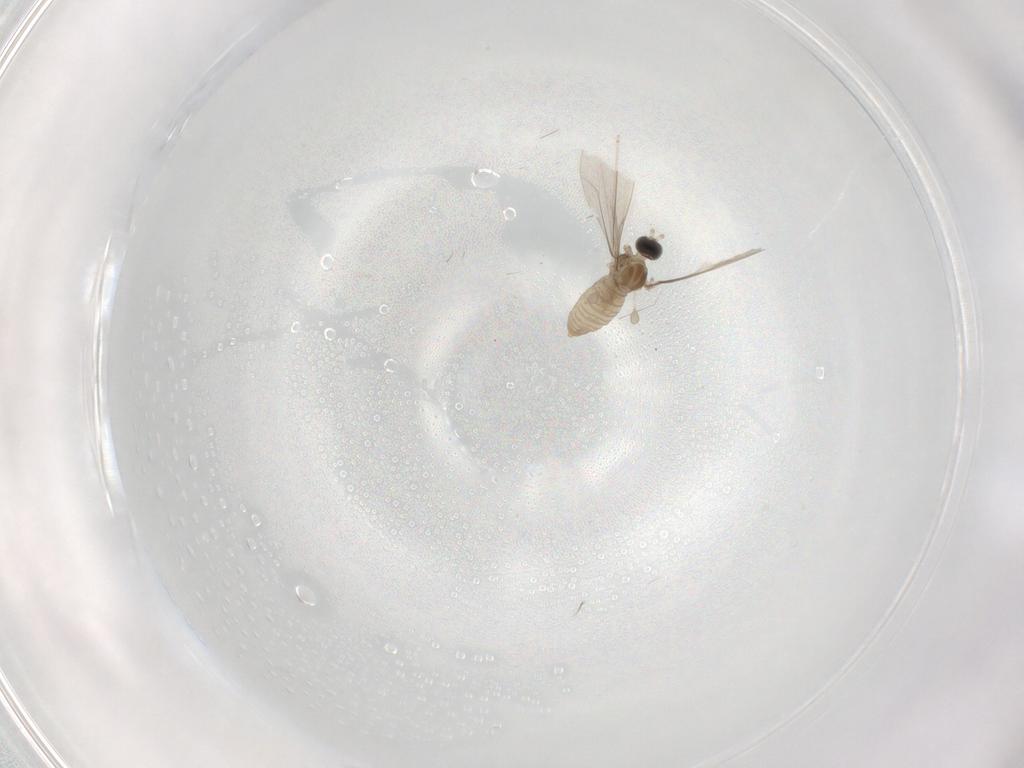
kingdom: Animalia
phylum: Arthropoda
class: Insecta
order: Diptera
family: Cecidomyiidae
